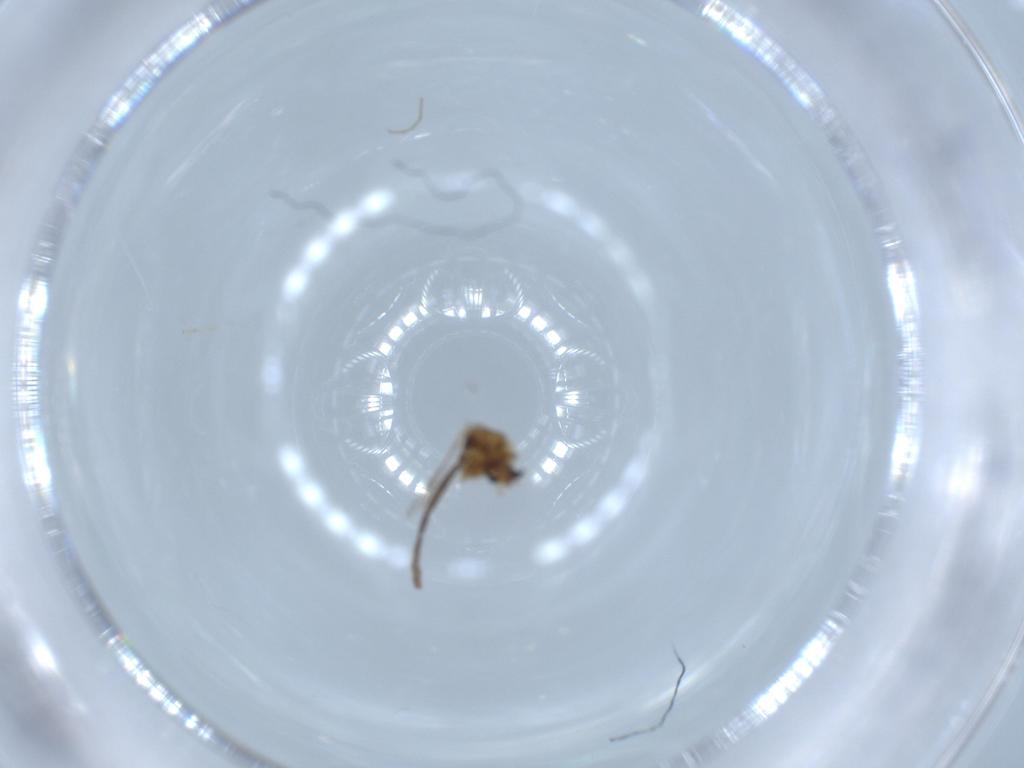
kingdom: Animalia
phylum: Arthropoda
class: Insecta
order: Diptera
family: Chironomidae
